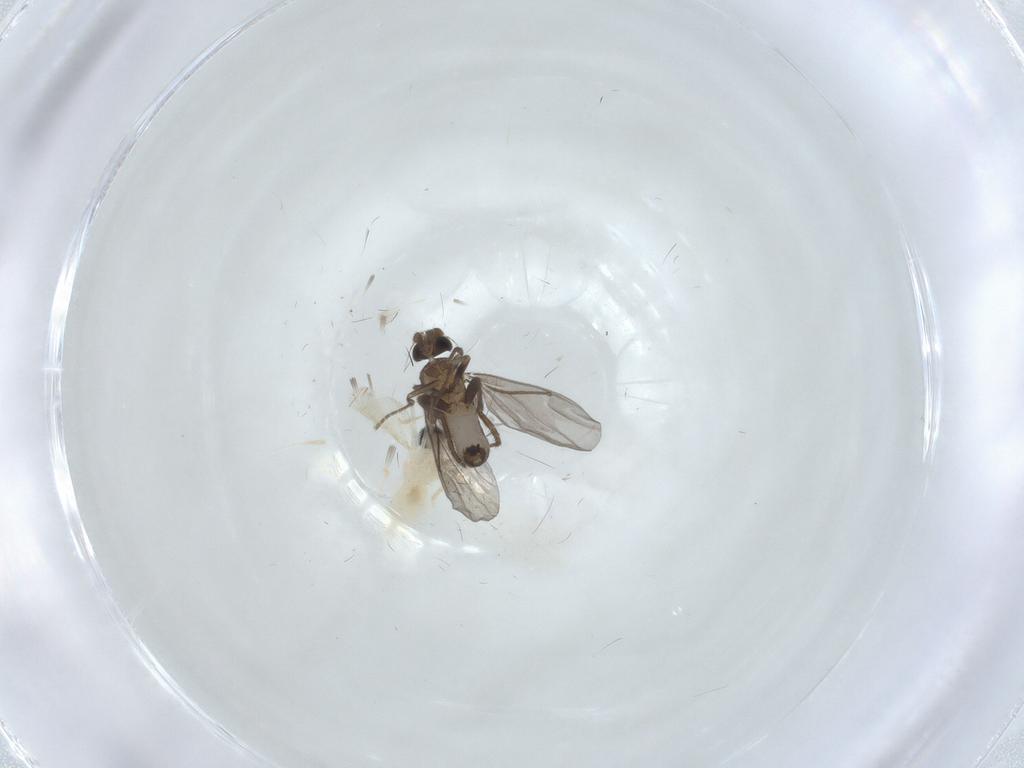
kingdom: Animalia
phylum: Arthropoda
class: Insecta
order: Diptera
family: Cecidomyiidae
